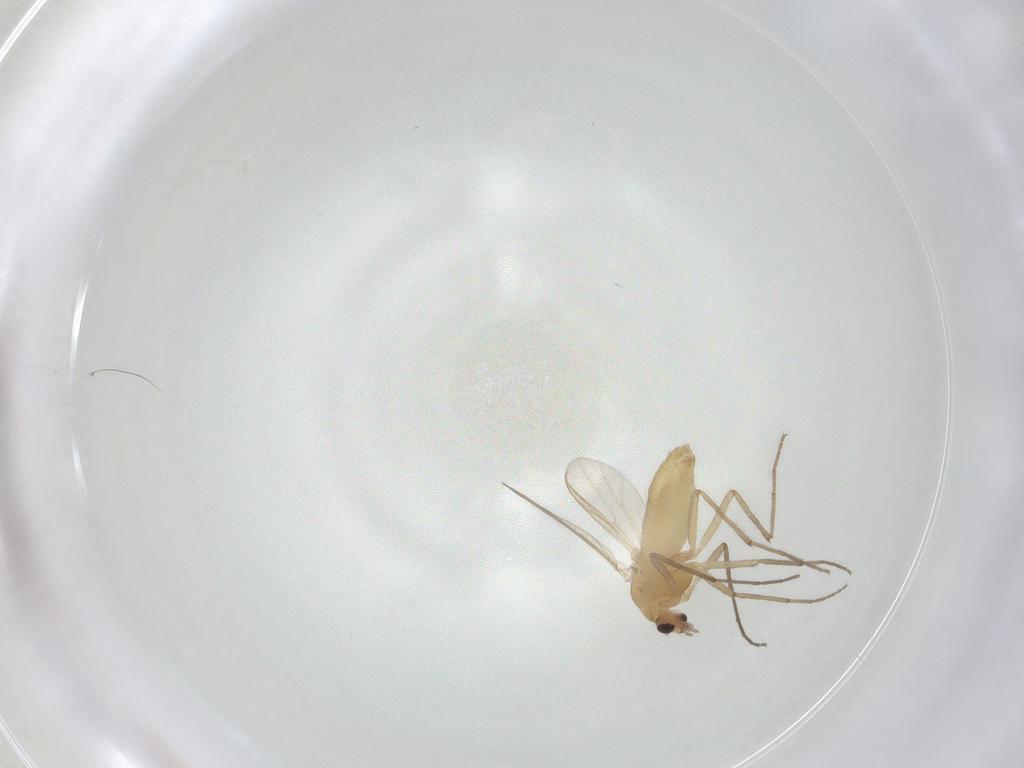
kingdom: Animalia
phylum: Arthropoda
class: Insecta
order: Diptera
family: Chironomidae
